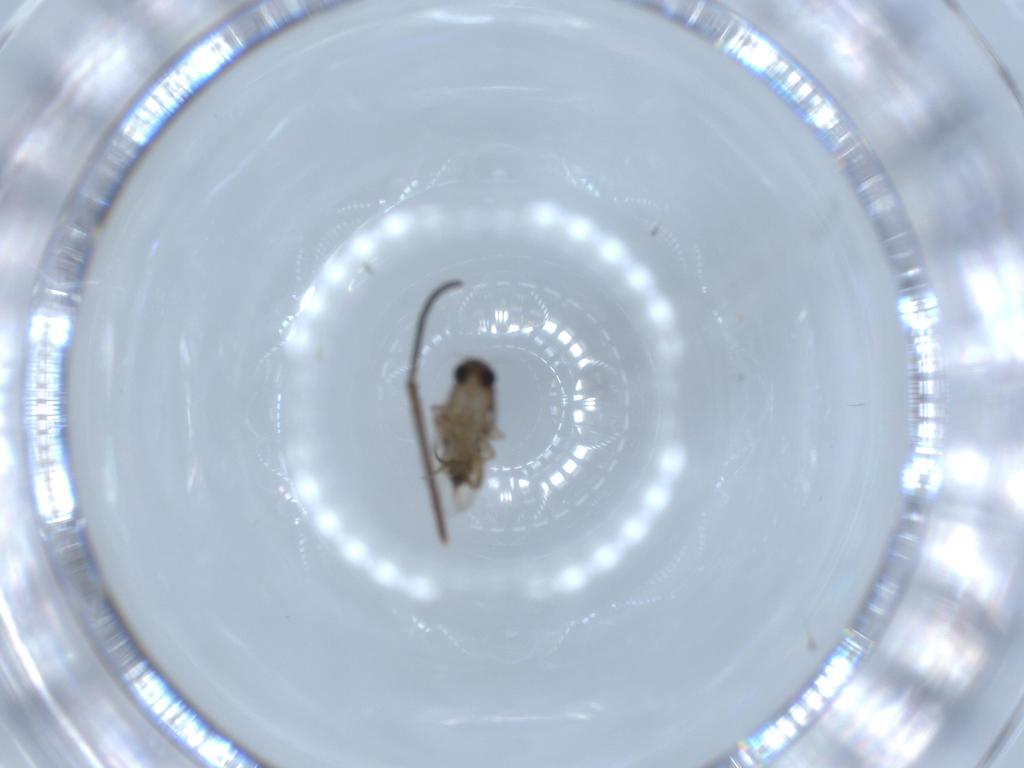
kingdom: Animalia
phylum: Arthropoda
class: Insecta
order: Diptera
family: Phoridae
